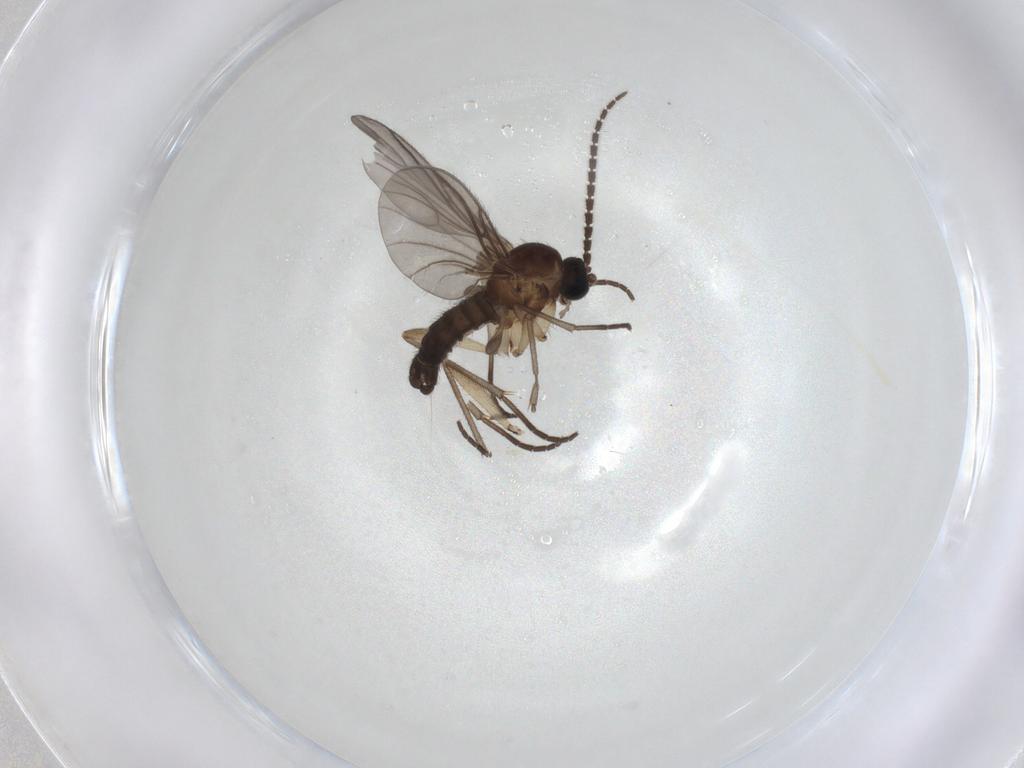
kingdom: Animalia
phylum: Arthropoda
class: Insecta
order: Diptera
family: Sciaridae
